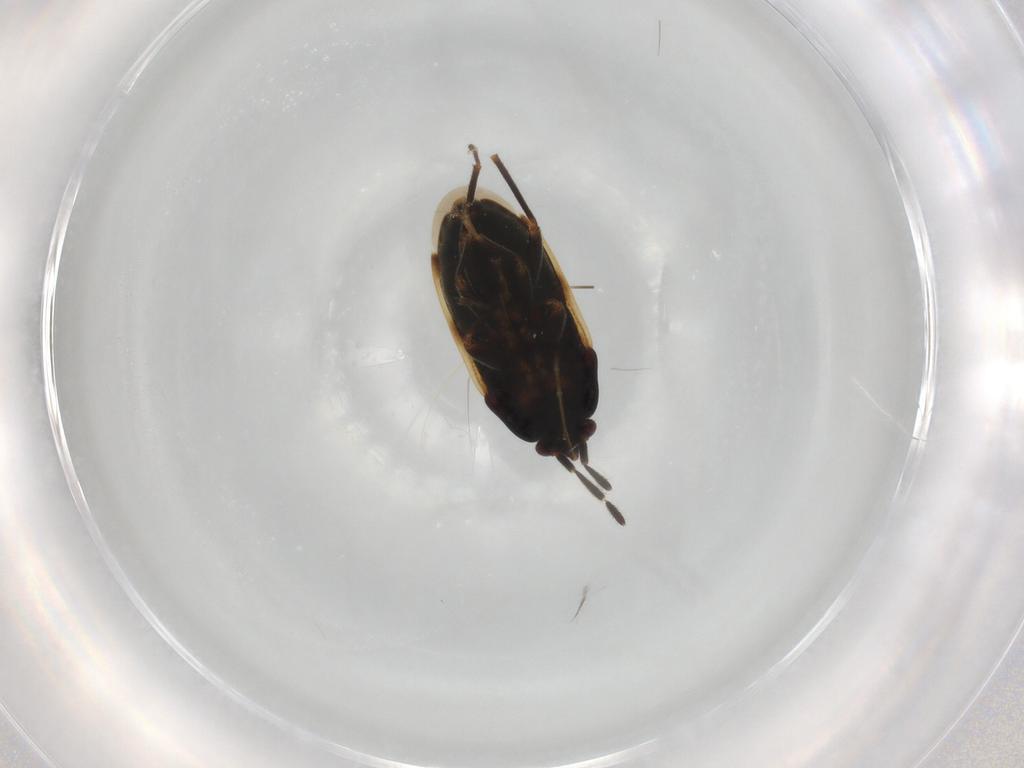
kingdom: Animalia
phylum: Arthropoda
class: Insecta
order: Hemiptera
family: Rhyparochromidae
